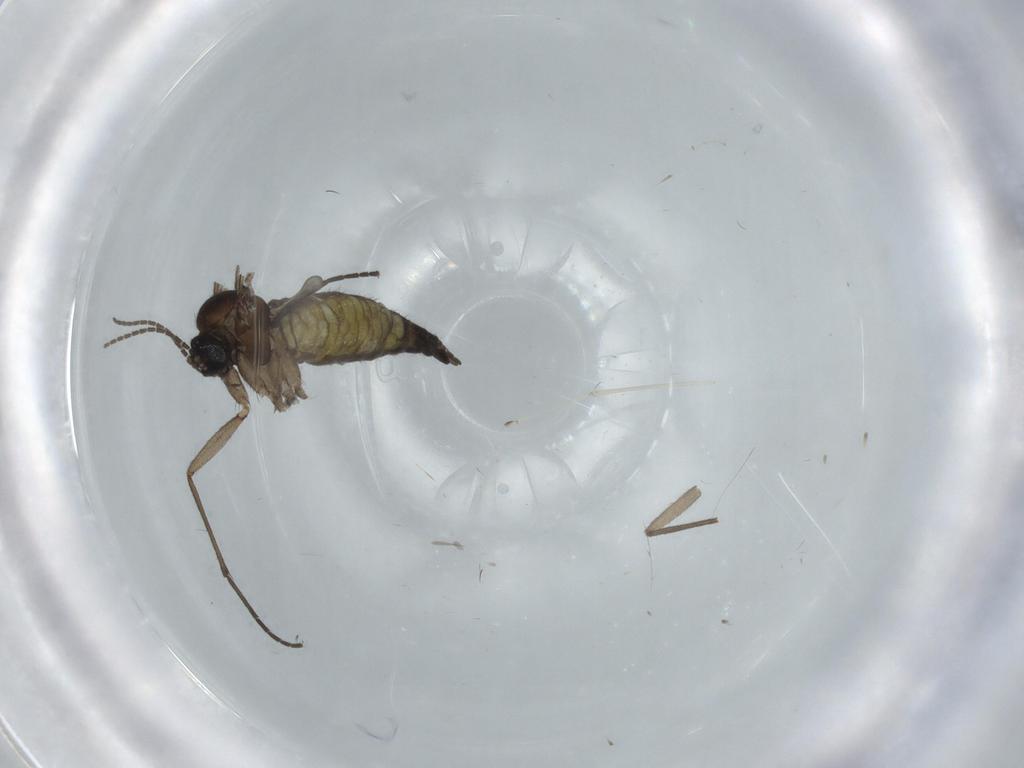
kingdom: Animalia
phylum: Arthropoda
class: Insecta
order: Diptera
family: Sciaridae
